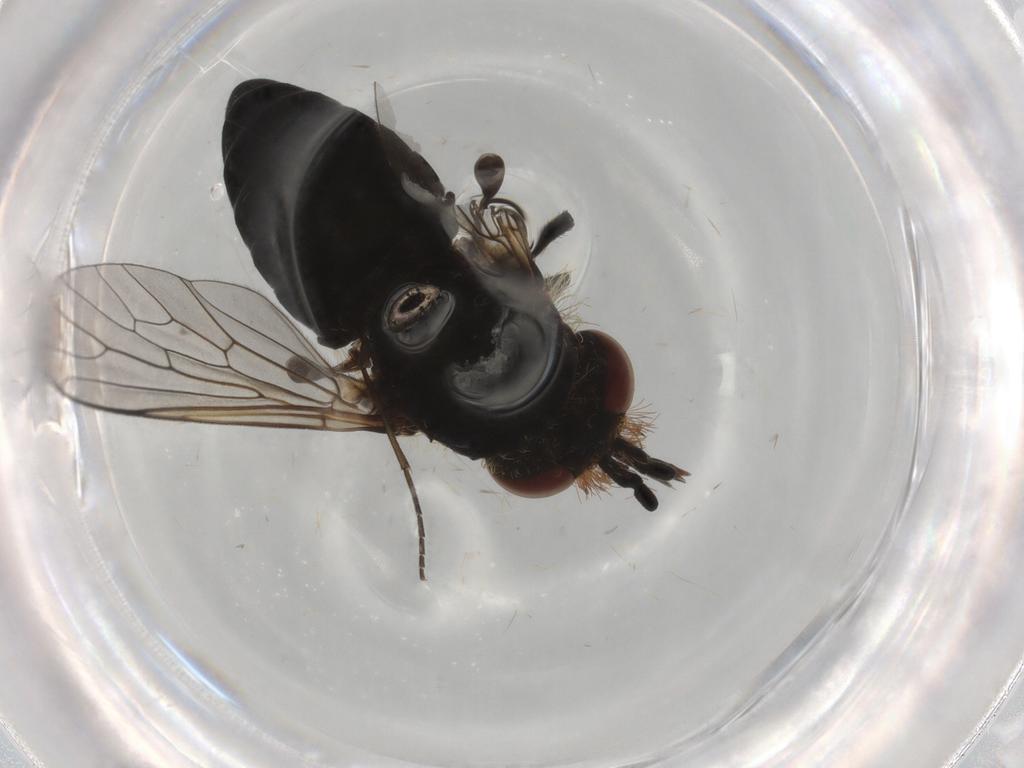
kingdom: Animalia
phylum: Arthropoda
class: Insecta
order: Diptera
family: Bombyliidae
